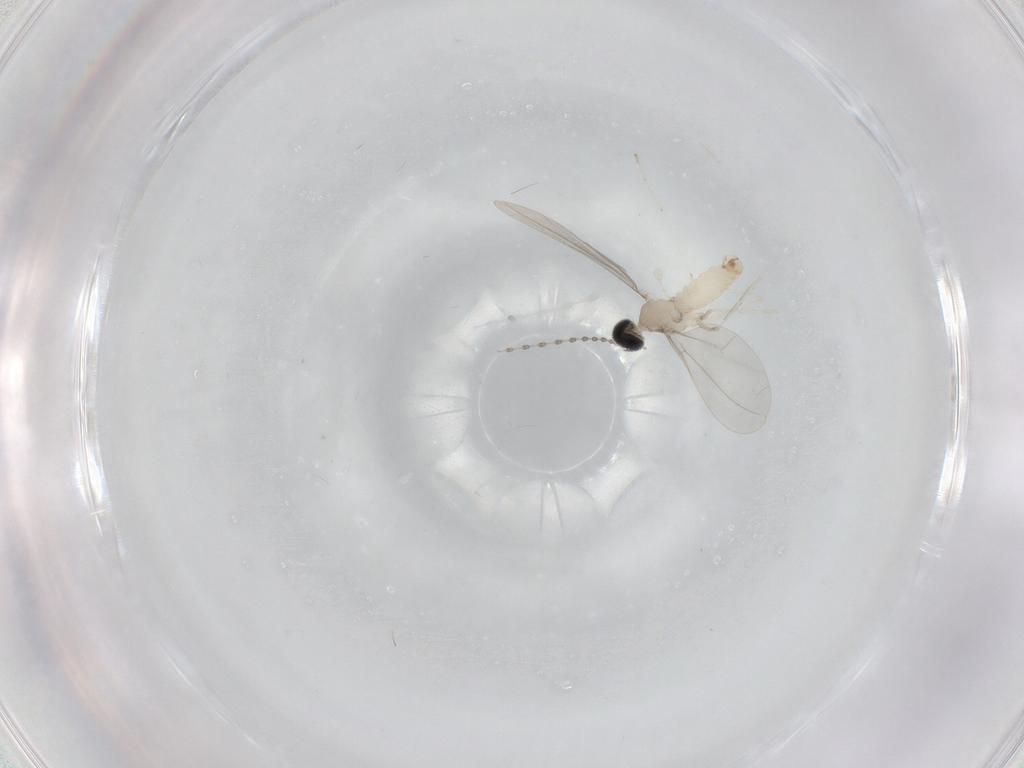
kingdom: Animalia
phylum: Arthropoda
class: Insecta
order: Diptera
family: Cecidomyiidae
